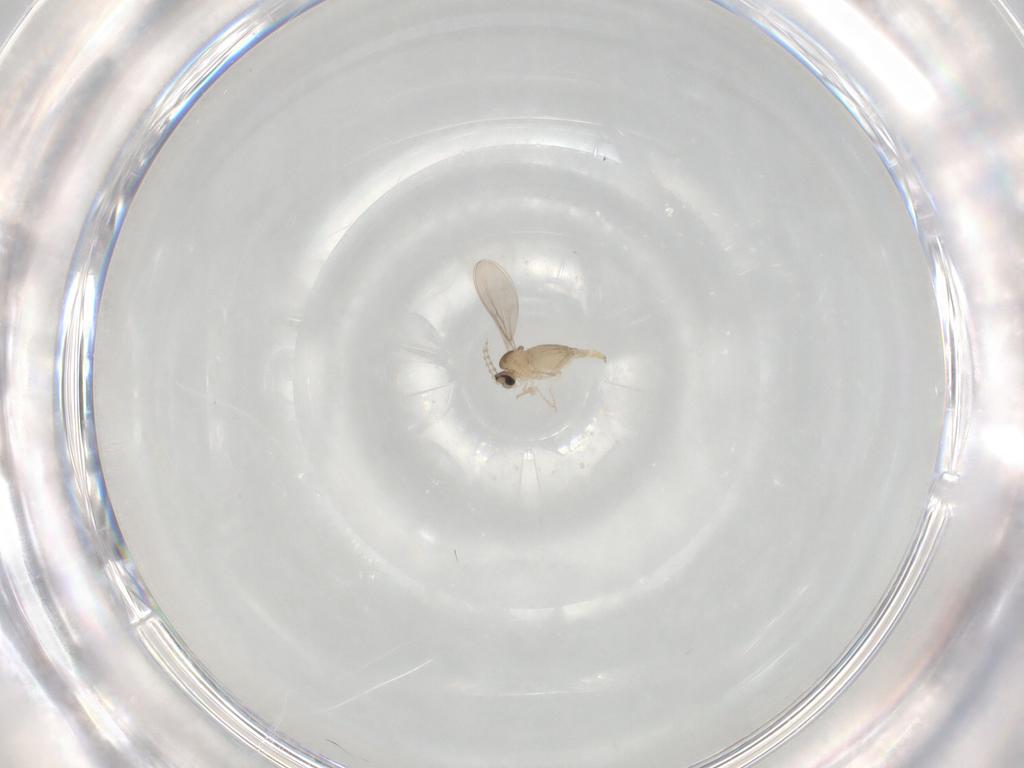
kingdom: Animalia
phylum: Arthropoda
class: Insecta
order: Diptera
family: Cecidomyiidae
